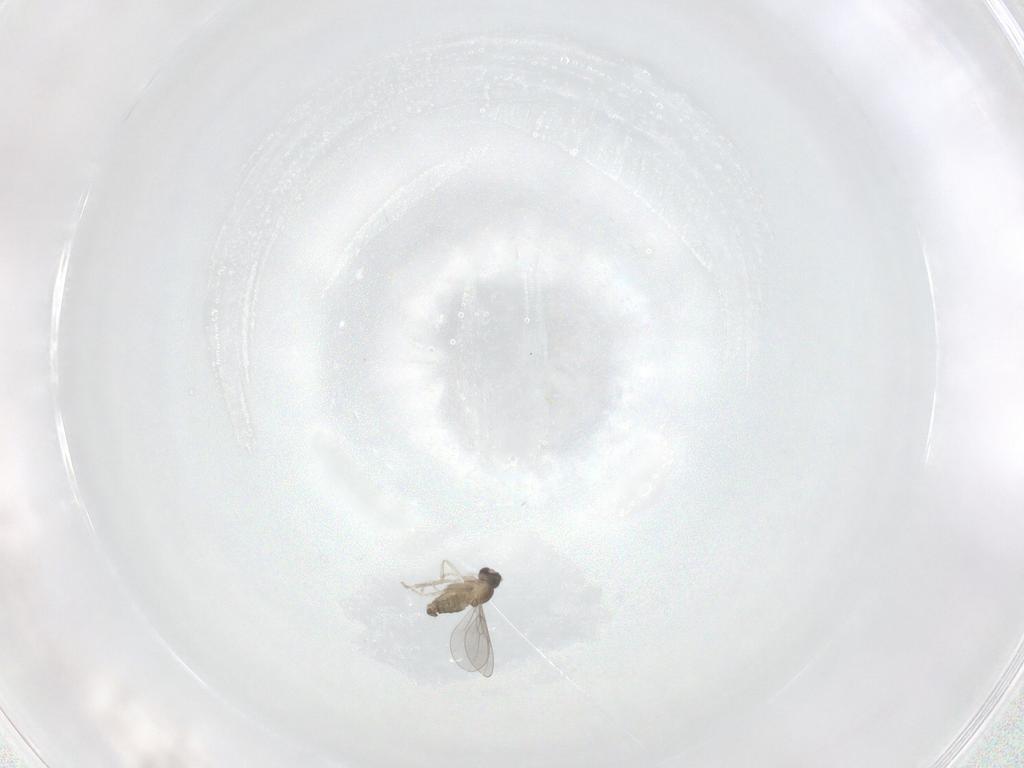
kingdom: Animalia
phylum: Arthropoda
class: Insecta
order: Diptera
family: Cecidomyiidae
